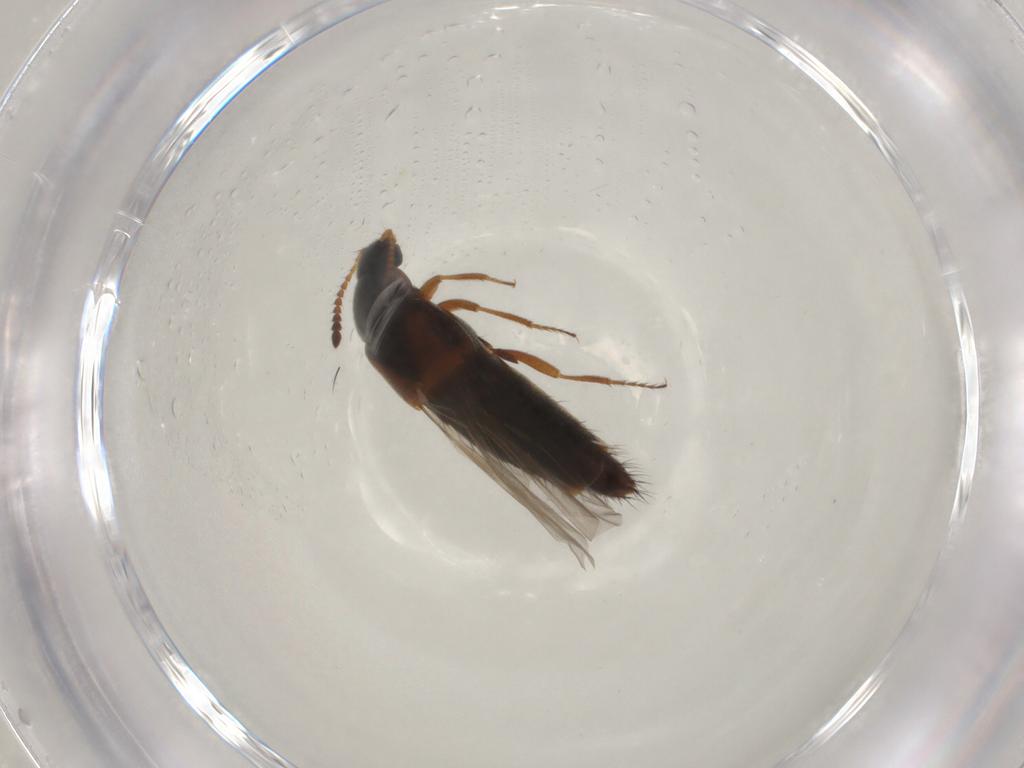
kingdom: Animalia
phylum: Arthropoda
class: Insecta
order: Coleoptera
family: Staphylinidae
